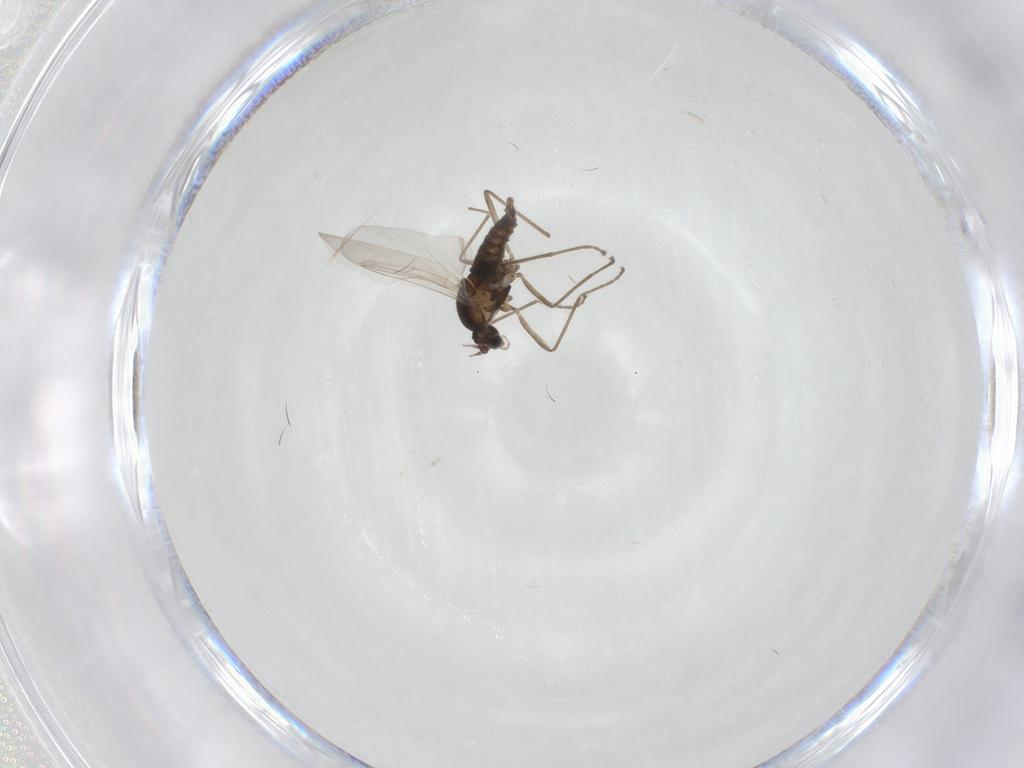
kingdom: Animalia
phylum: Arthropoda
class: Insecta
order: Diptera
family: Cecidomyiidae
